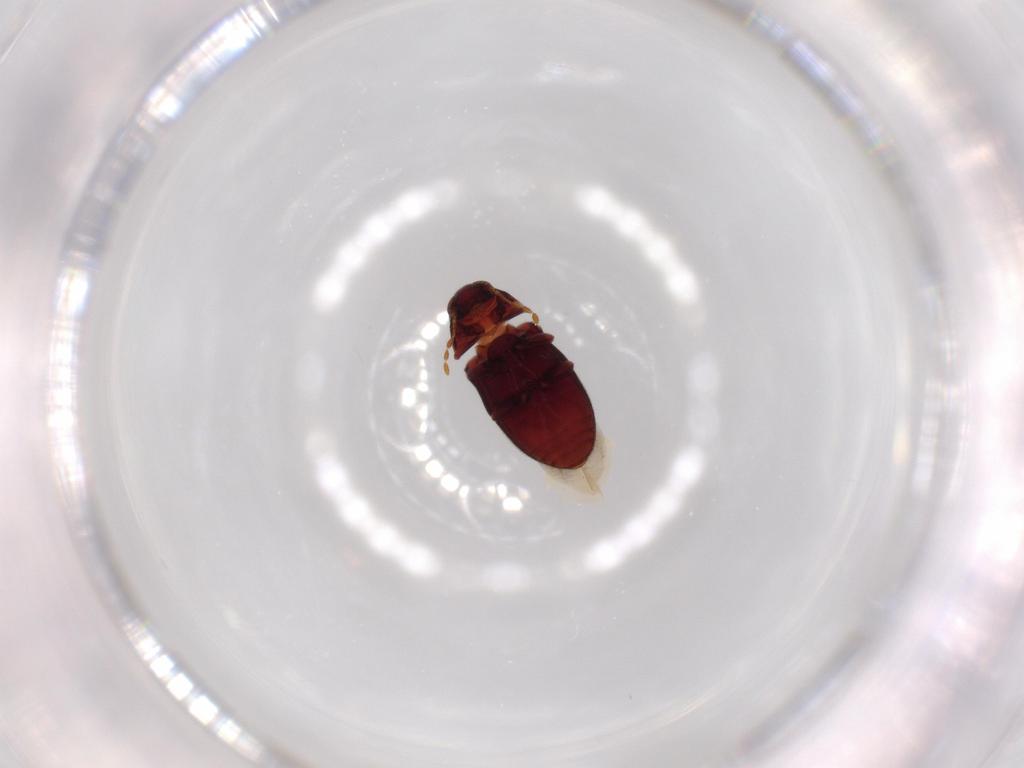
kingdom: Animalia
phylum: Arthropoda
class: Insecta
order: Coleoptera
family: Ptinidae
